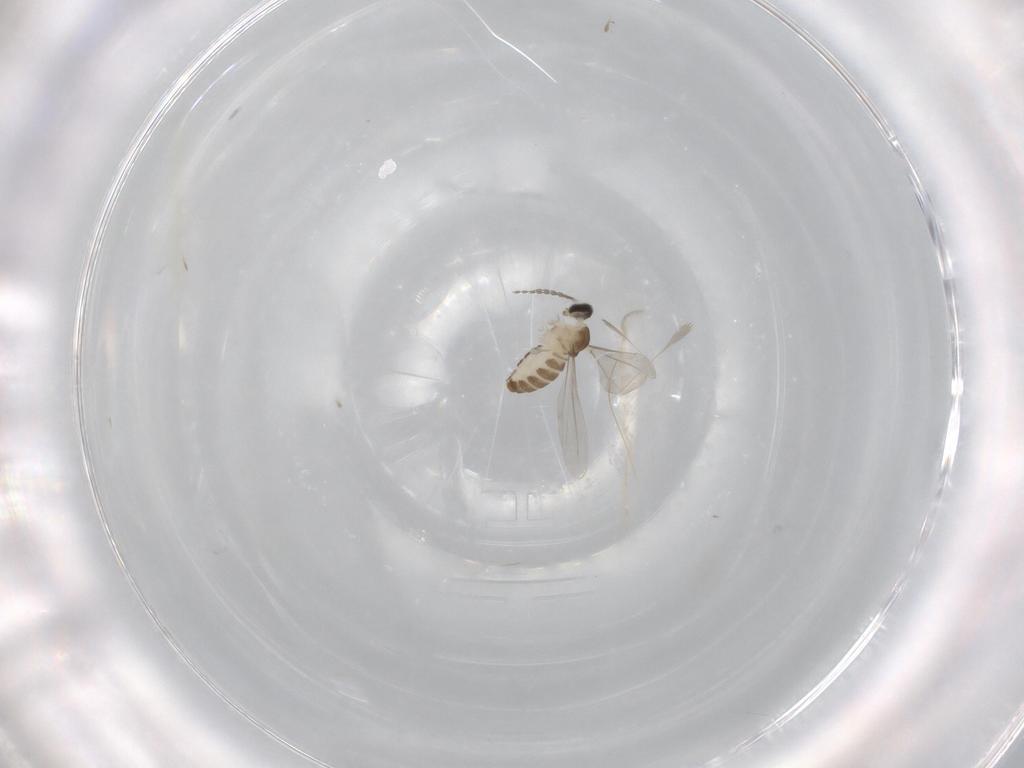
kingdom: Animalia
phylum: Arthropoda
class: Insecta
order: Diptera
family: Cecidomyiidae
